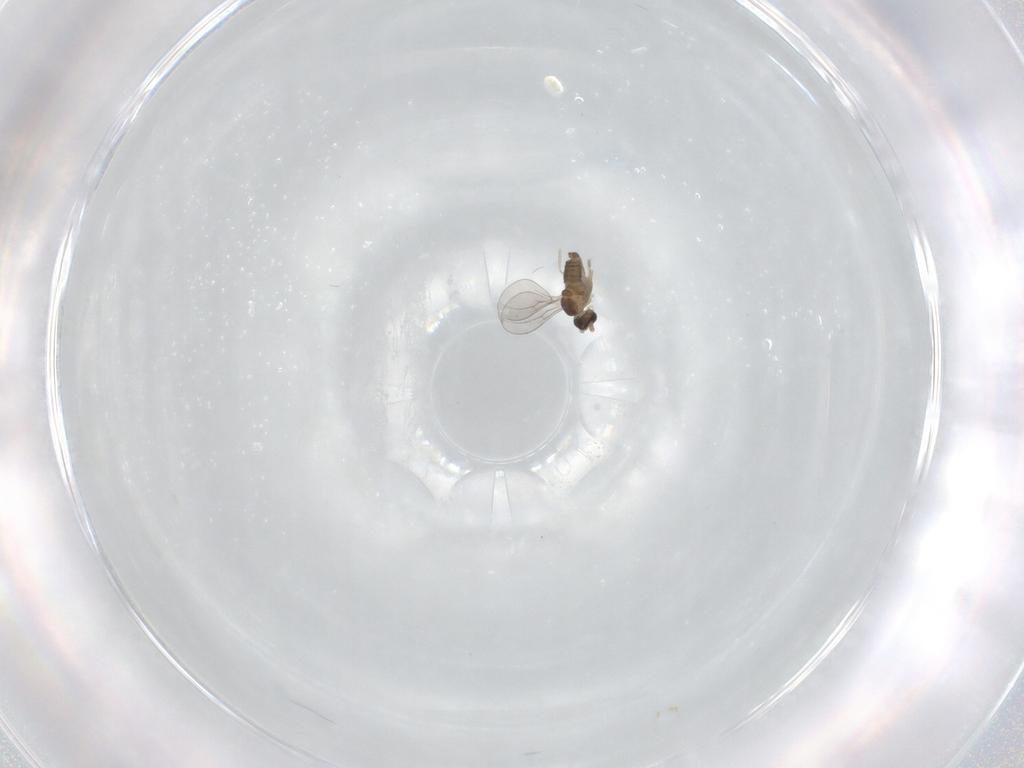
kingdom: Animalia
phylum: Arthropoda
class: Insecta
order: Diptera
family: Cecidomyiidae
